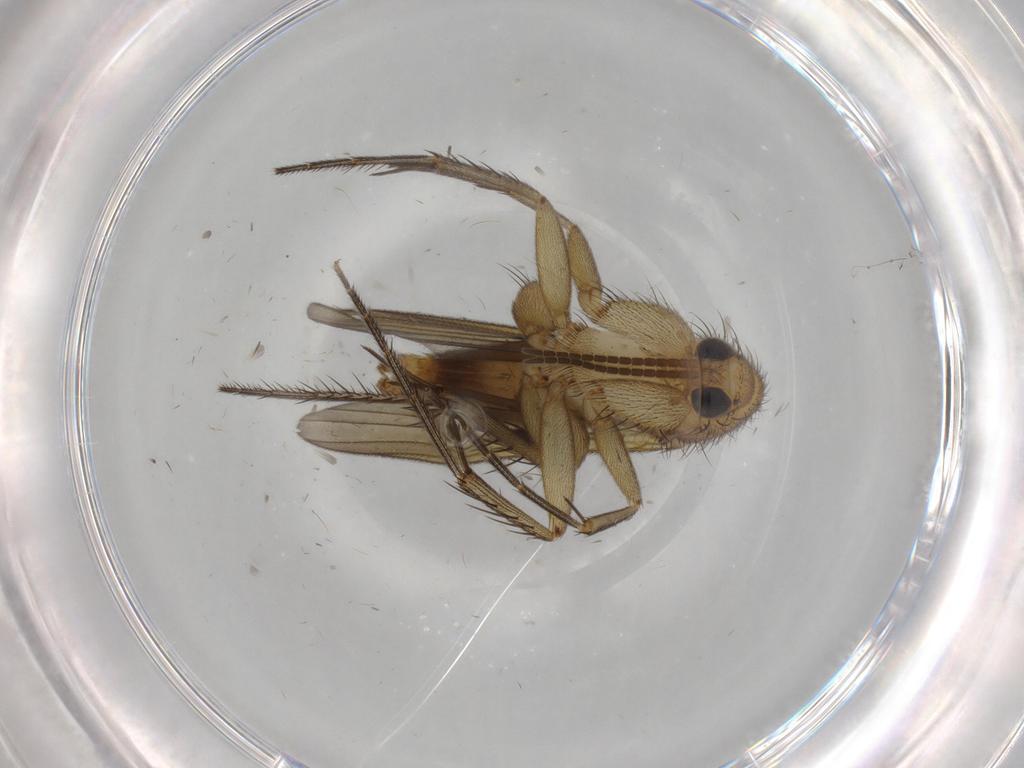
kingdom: Animalia
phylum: Arthropoda
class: Insecta
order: Diptera
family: Mycetophilidae
